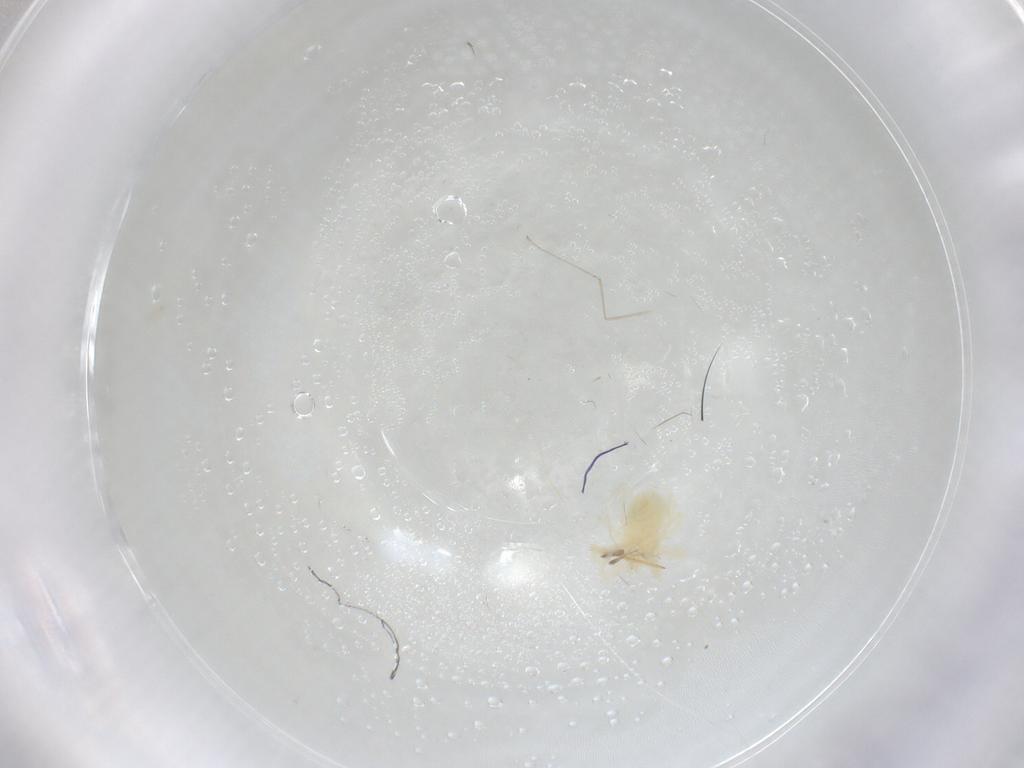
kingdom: Animalia
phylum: Arthropoda
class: Arachnida
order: Trombidiformes
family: Anystidae
